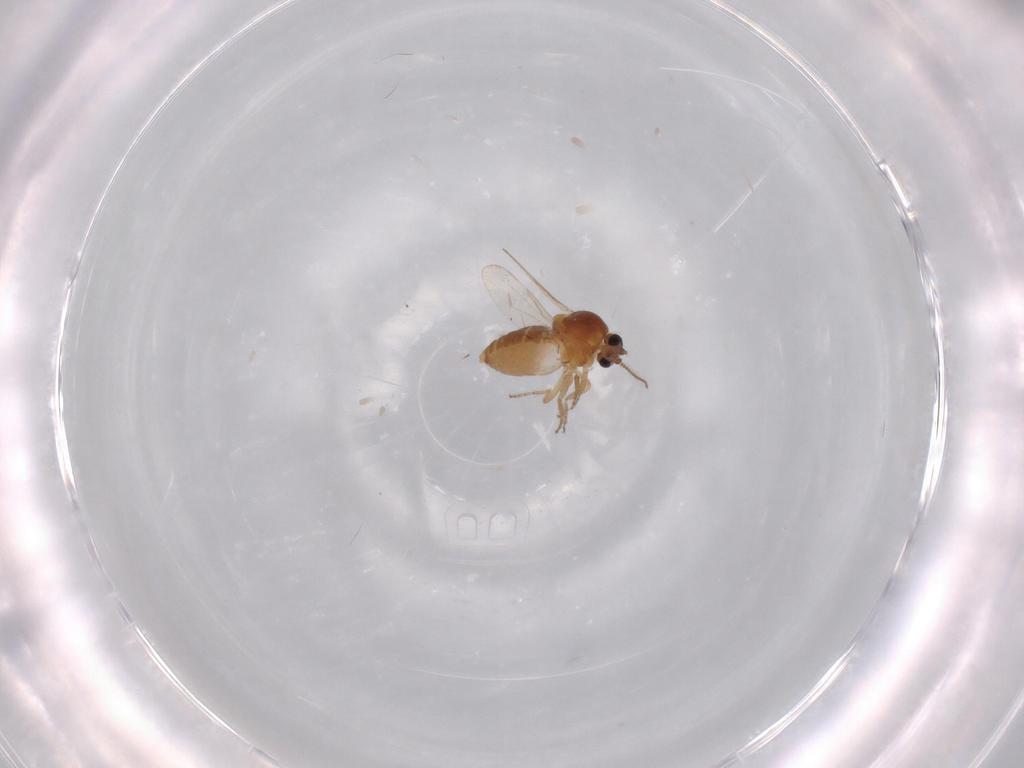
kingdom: Animalia
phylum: Arthropoda
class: Insecta
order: Diptera
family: Ceratopogonidae
